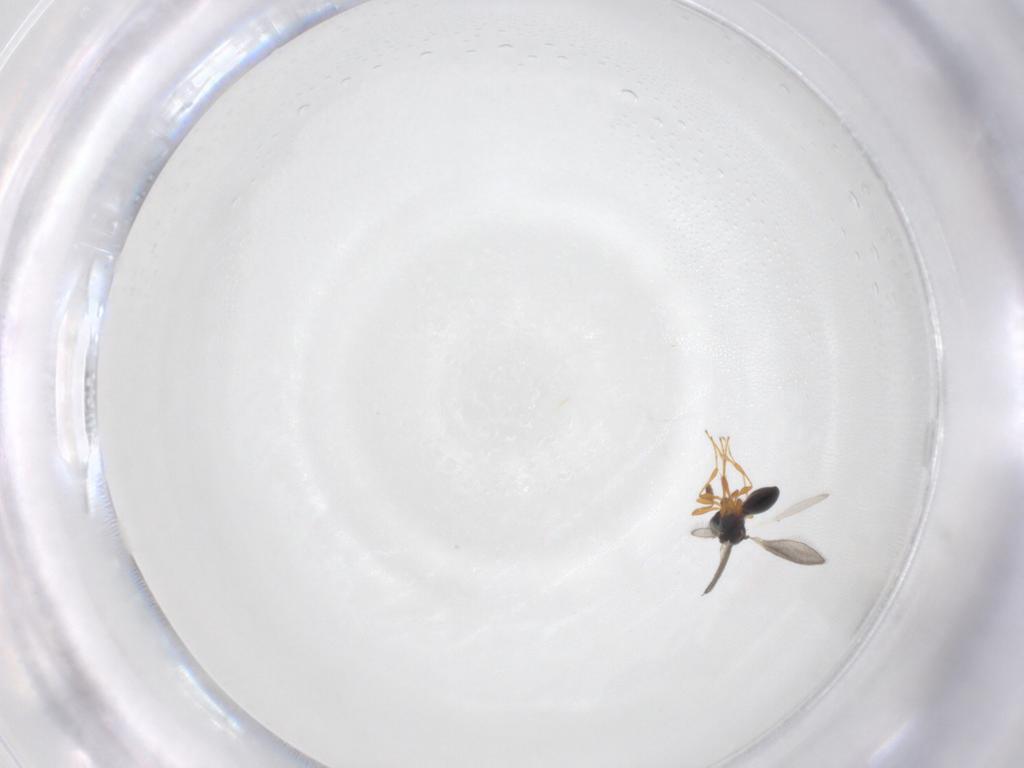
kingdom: Animalia
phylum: Arthropoda
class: Insecta
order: Hymenoptera
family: Platygastridae
